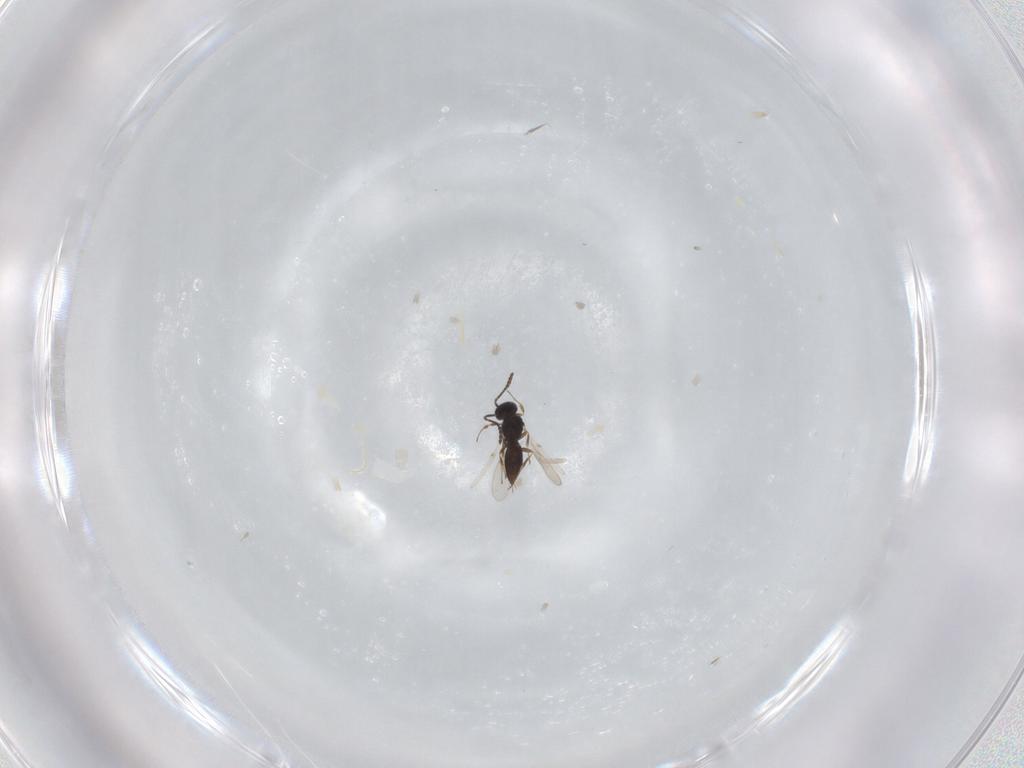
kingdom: Animalia
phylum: Arthropoda
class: Insecta
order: Hymenoptera
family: Scelionidae
